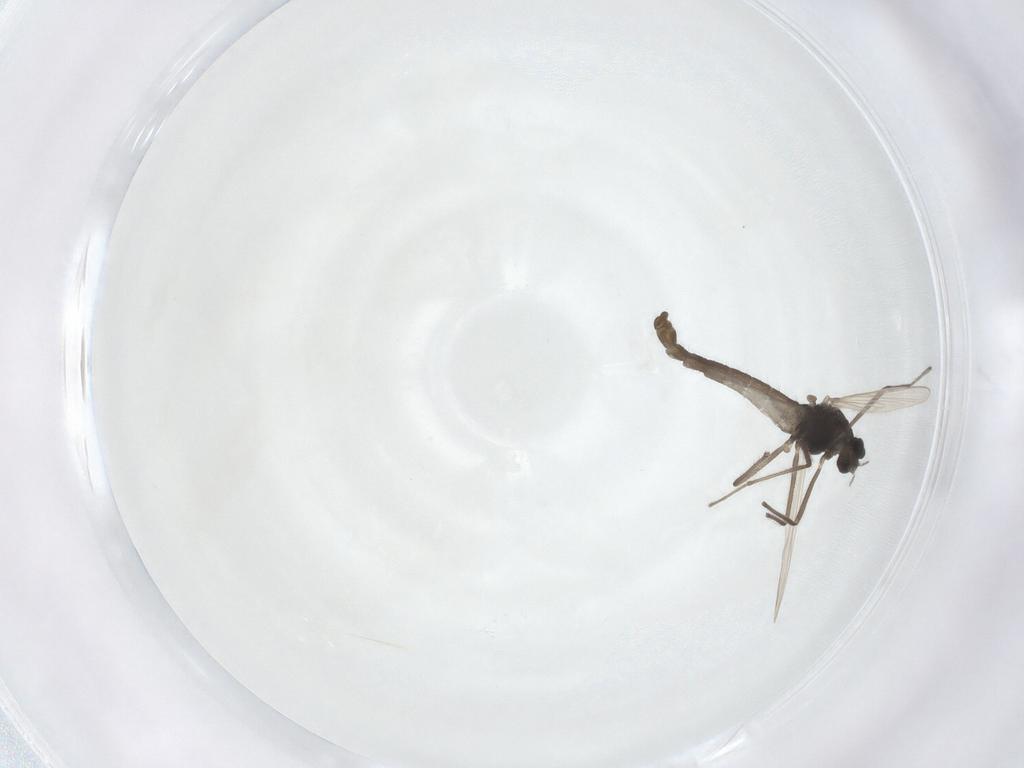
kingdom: Animalia
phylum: Arthropoda
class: Insecta
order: Diptera
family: Chironomidae
